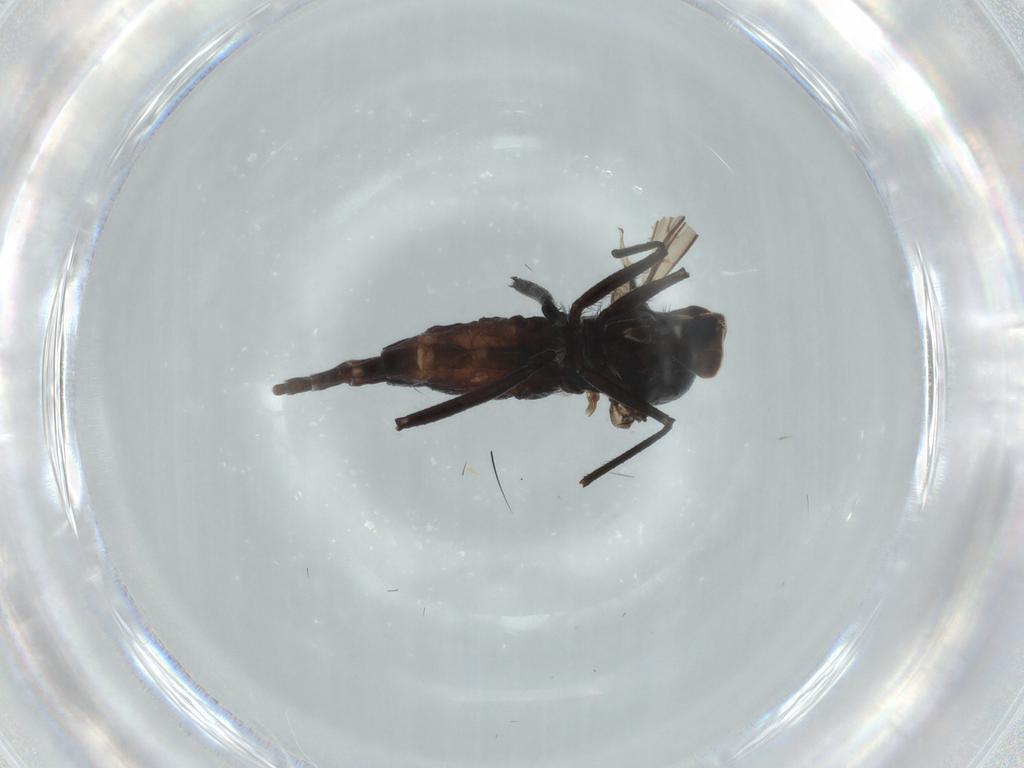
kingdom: Animalia
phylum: Arthropoda
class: Insecta
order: Diptera
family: Hybotidae
